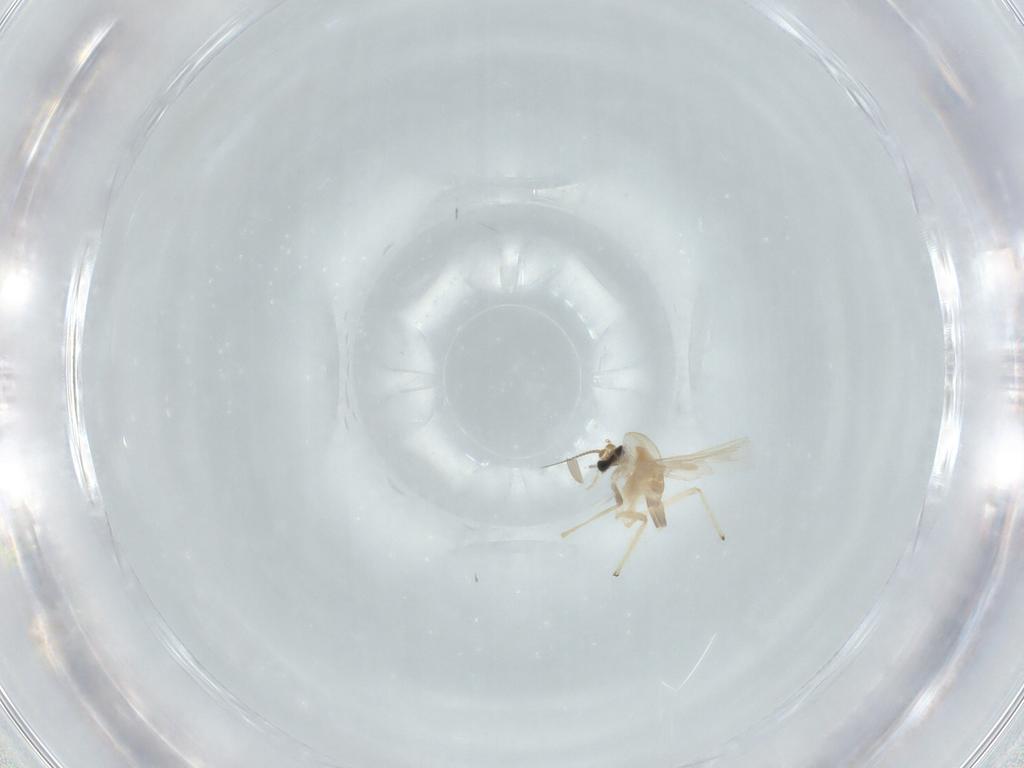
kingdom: Animalia
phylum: Arthropoda
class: Insecta
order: Diptera
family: Chironomidae
